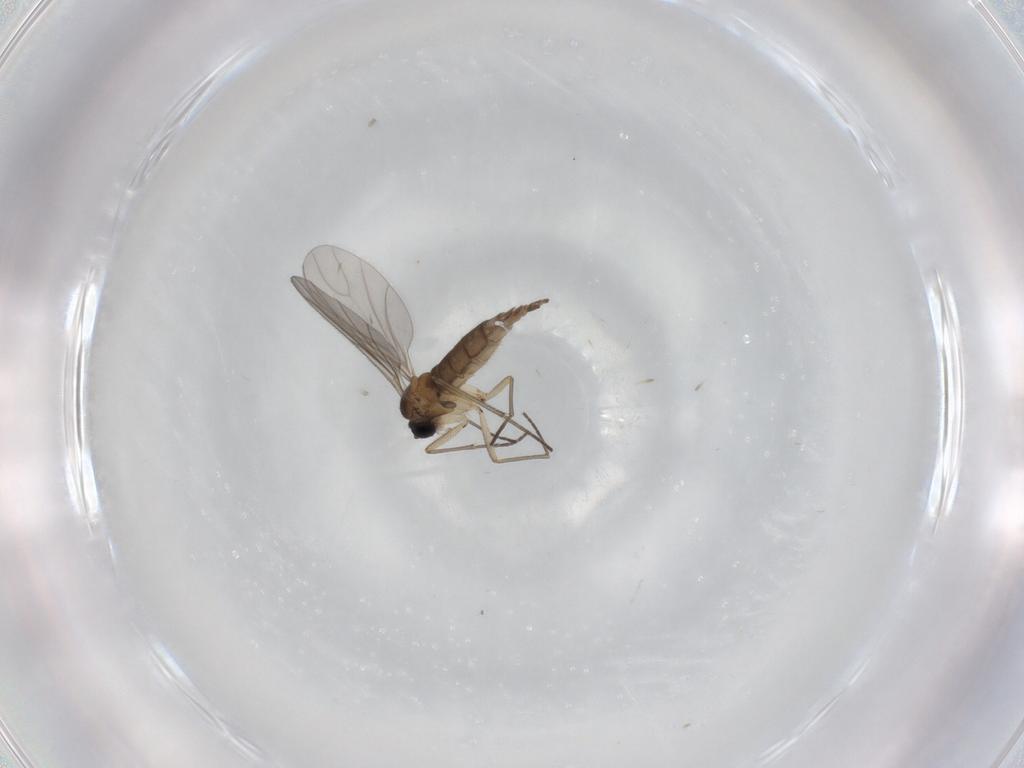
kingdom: Animalia
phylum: Arthropoda
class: Insecta
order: Diptera
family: Sciaridae
